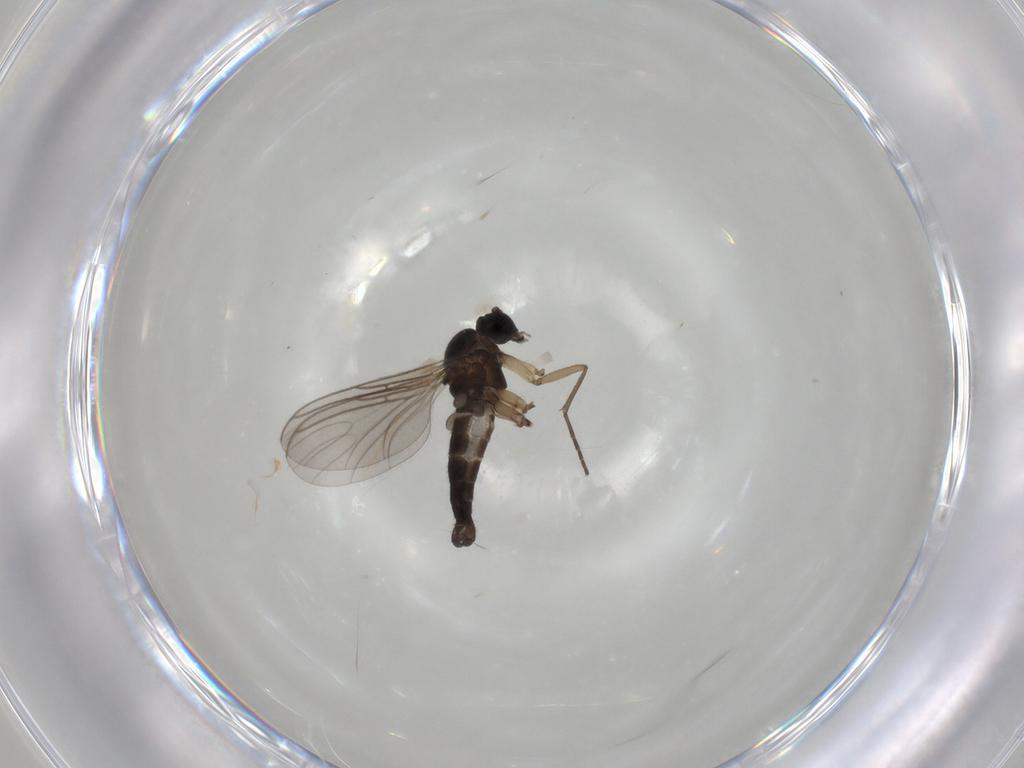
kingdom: Animalia
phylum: Arthropoda
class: Insecta
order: Diptera
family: Sciaridae
